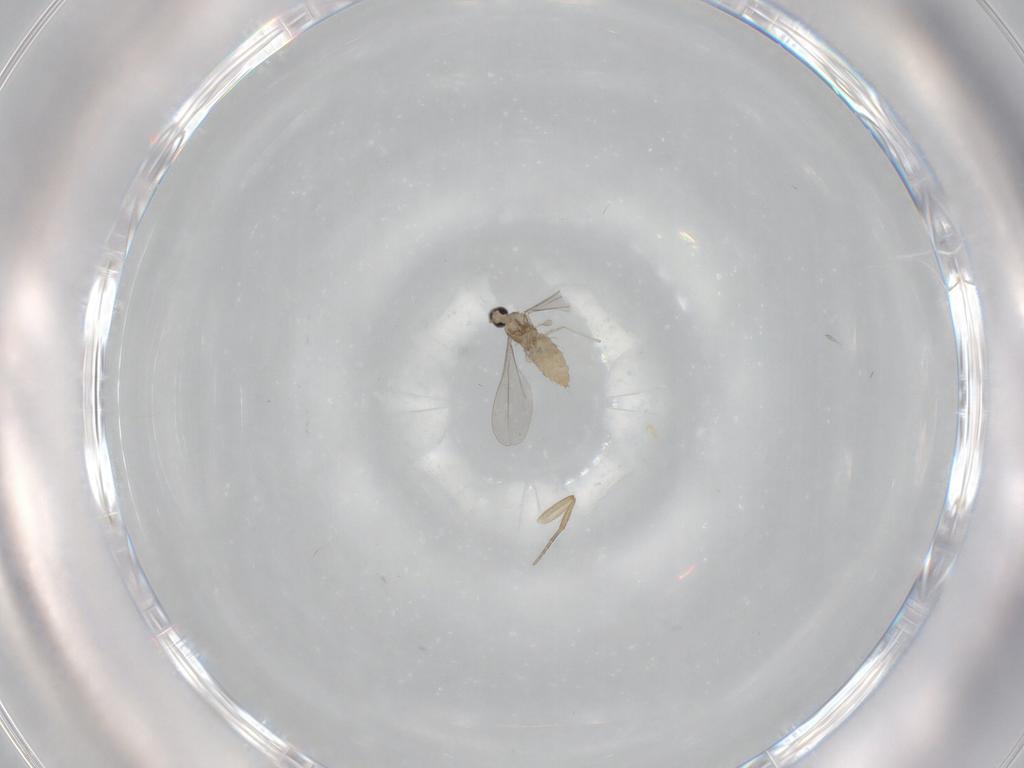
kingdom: Animalia
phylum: Arthropoda
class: Insecta
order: Diptera
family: Cecidomyiidae
